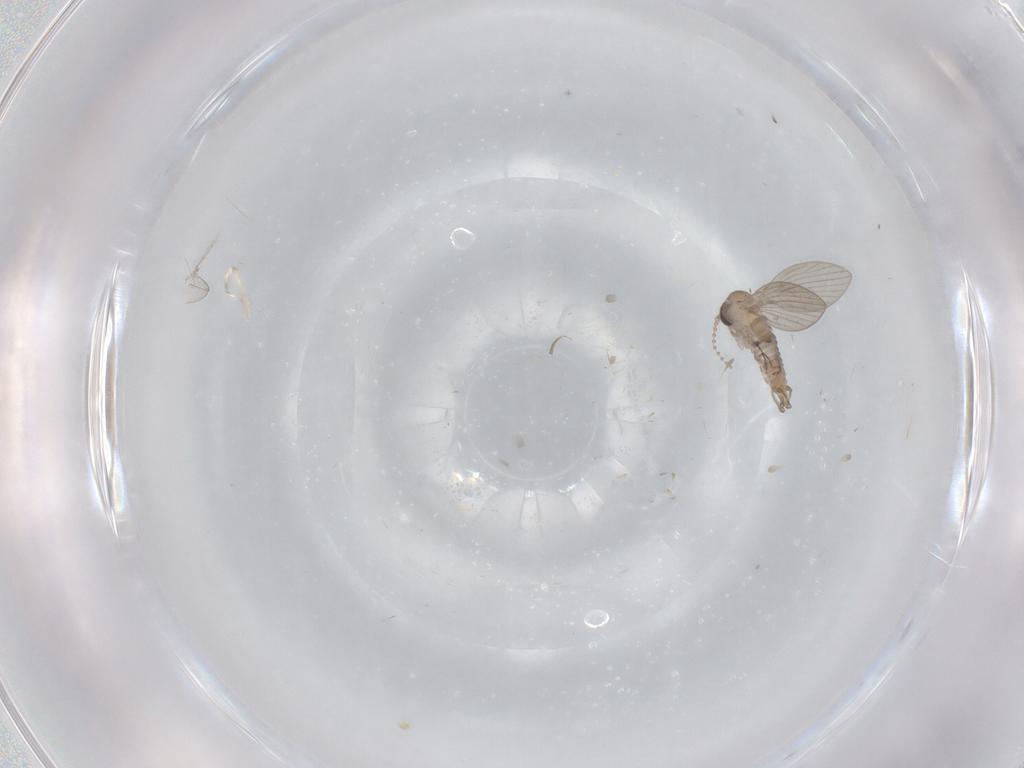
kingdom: Animalia
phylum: Arthropoda
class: Insecta
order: Diptera
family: Psychodidae
